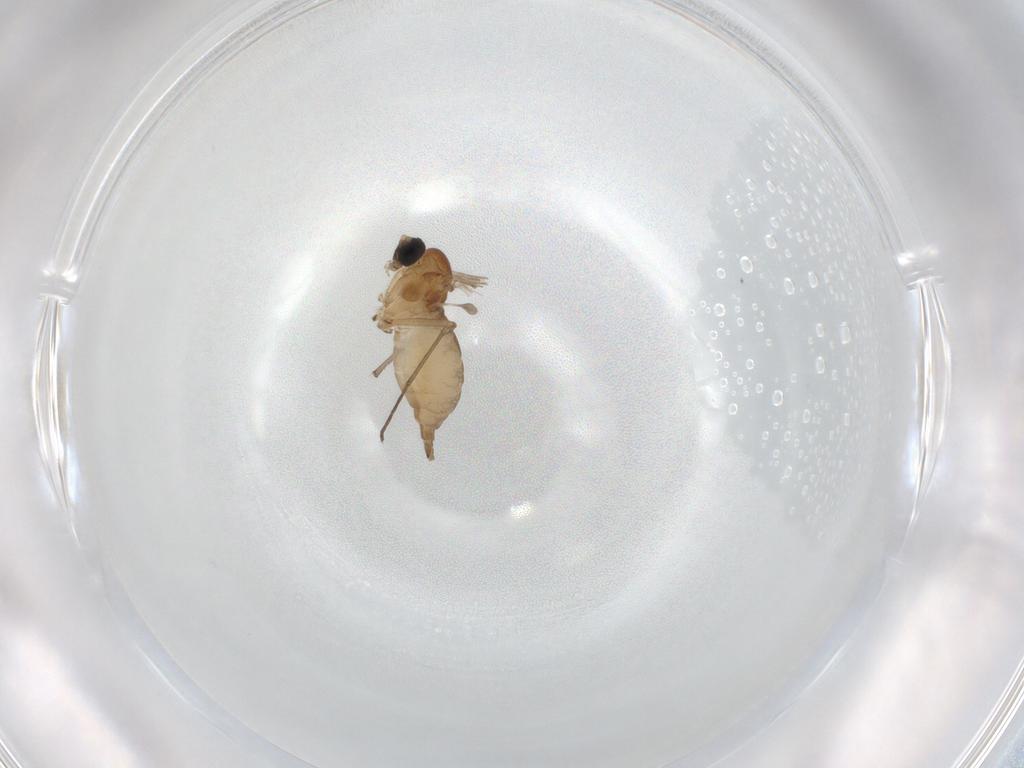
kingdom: Animalia
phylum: Arthropoda
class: Insecta
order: Diptera
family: Sciaridae
